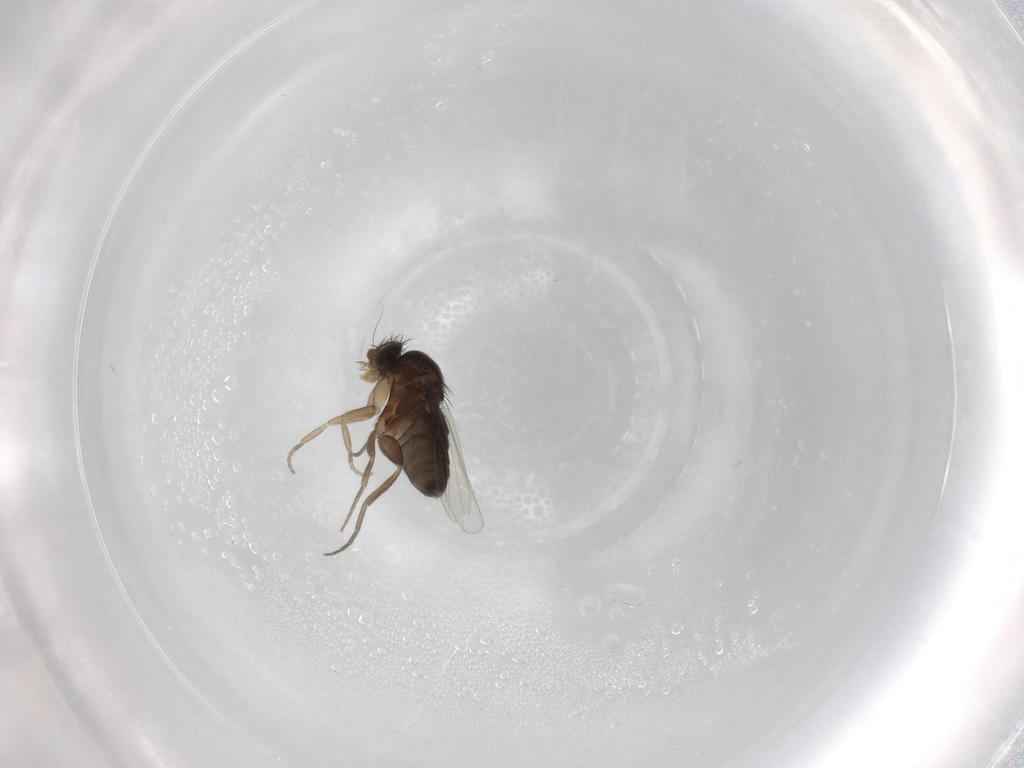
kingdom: Animalia
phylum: Arthropoda
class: Insecta
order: Diptera
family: Phoridae
